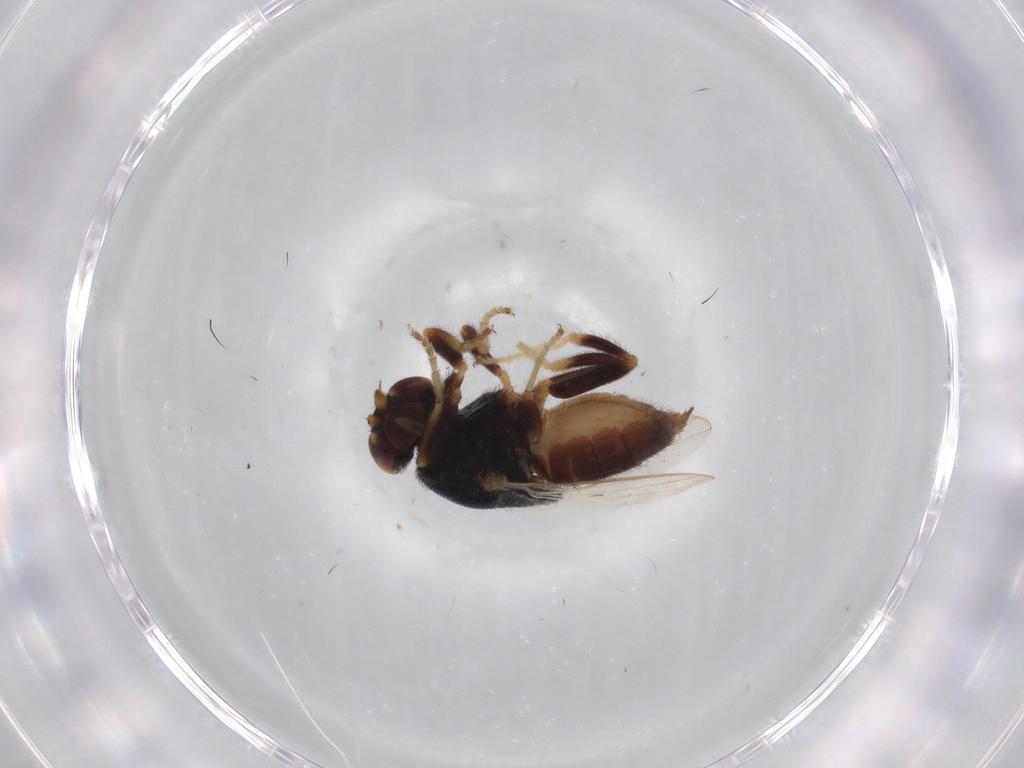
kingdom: Animalia
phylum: Arthropoda
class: Insecta
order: Diptera
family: Chloropidae
